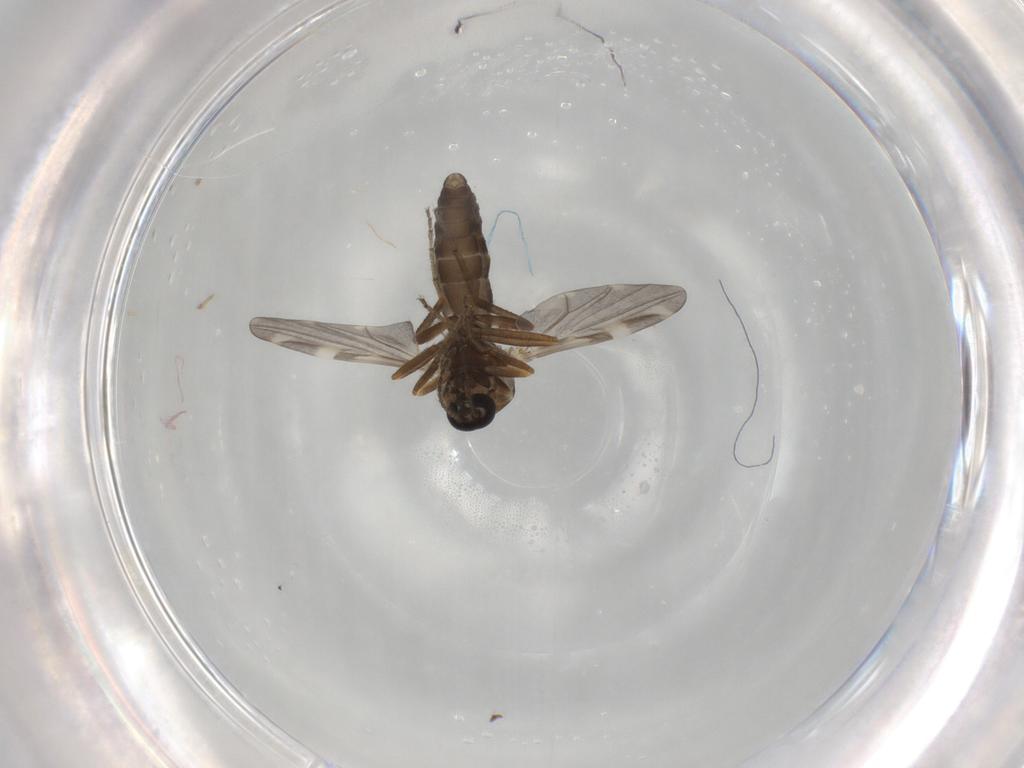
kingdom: Animalia
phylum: Arthropoda
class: Insecta
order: Diptera
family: Ceratopogonidae
